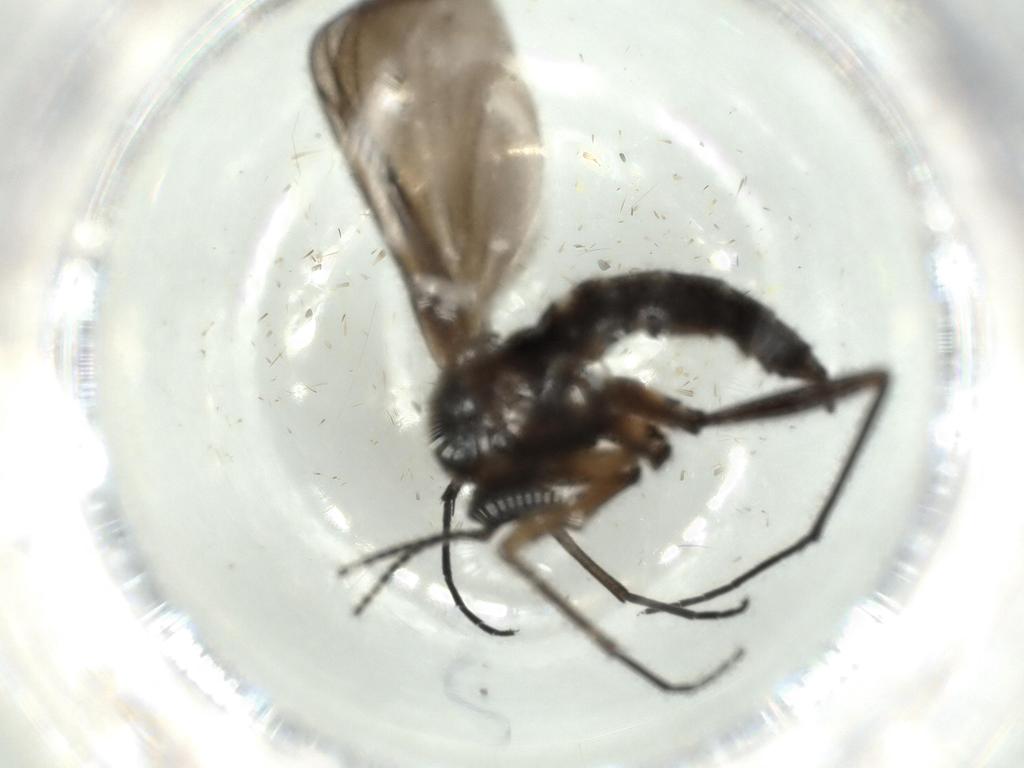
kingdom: Animalia
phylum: Arthropoda
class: Insecta
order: Diptera
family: Sciaridae
